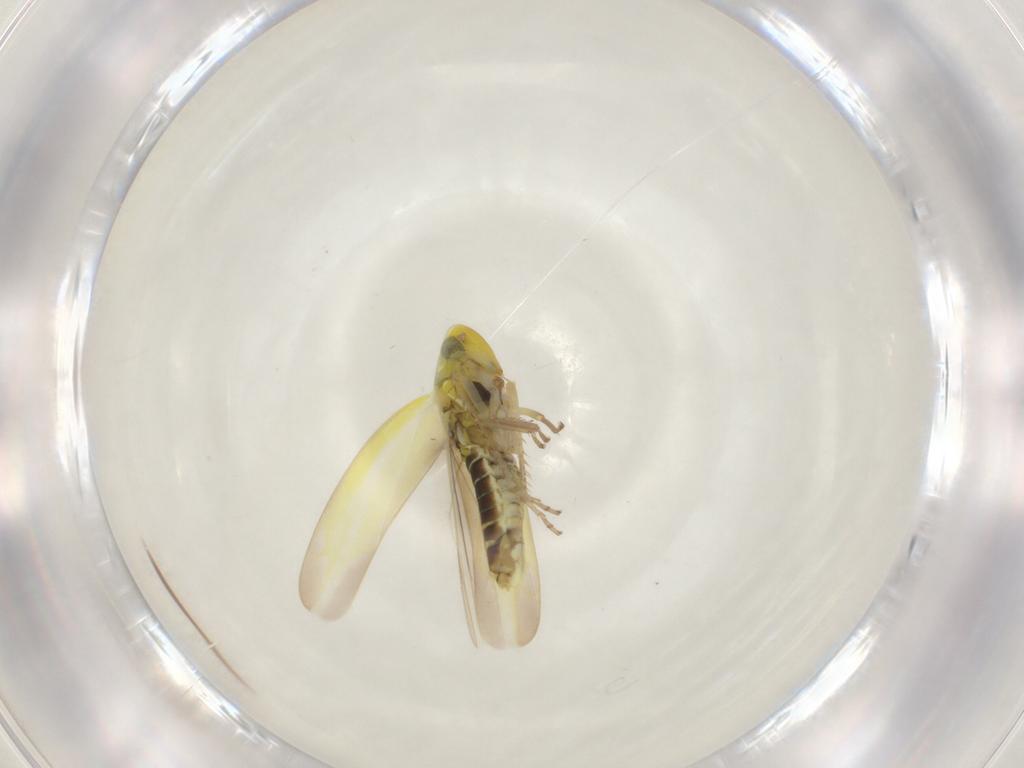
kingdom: Animalia
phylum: Arthropoda
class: Insecta
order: Hemiptera
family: Cicadellidae
